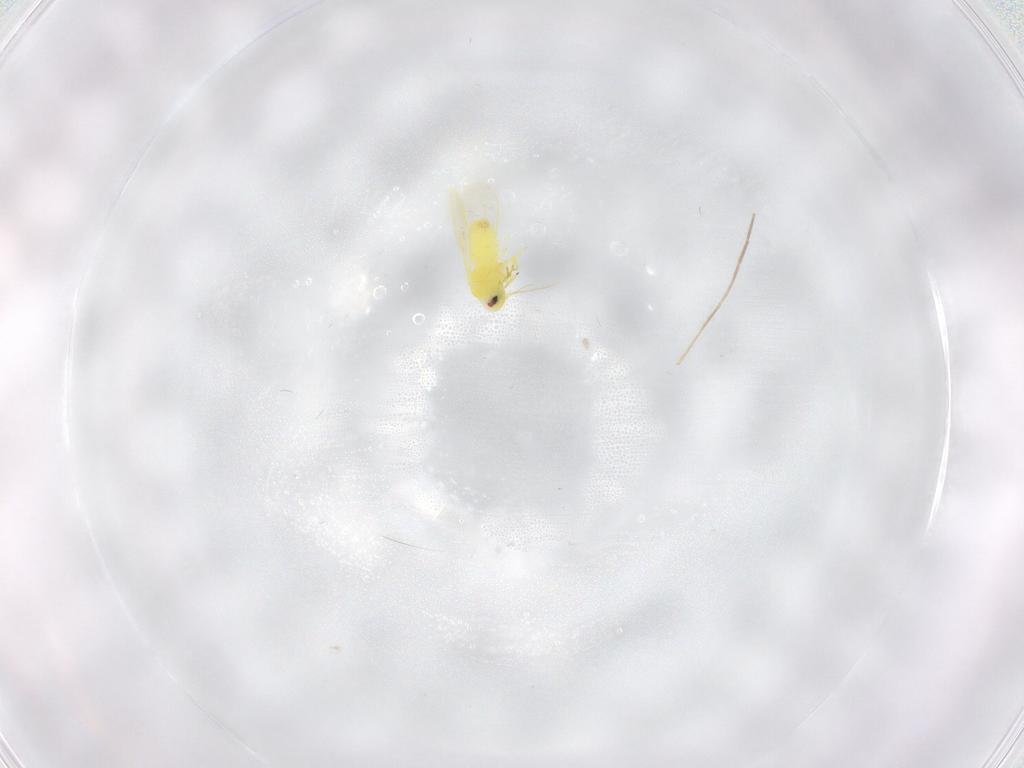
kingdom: Animalia
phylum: Arthropoda
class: Insecta
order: Hemiptera
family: Aleyrodidae
